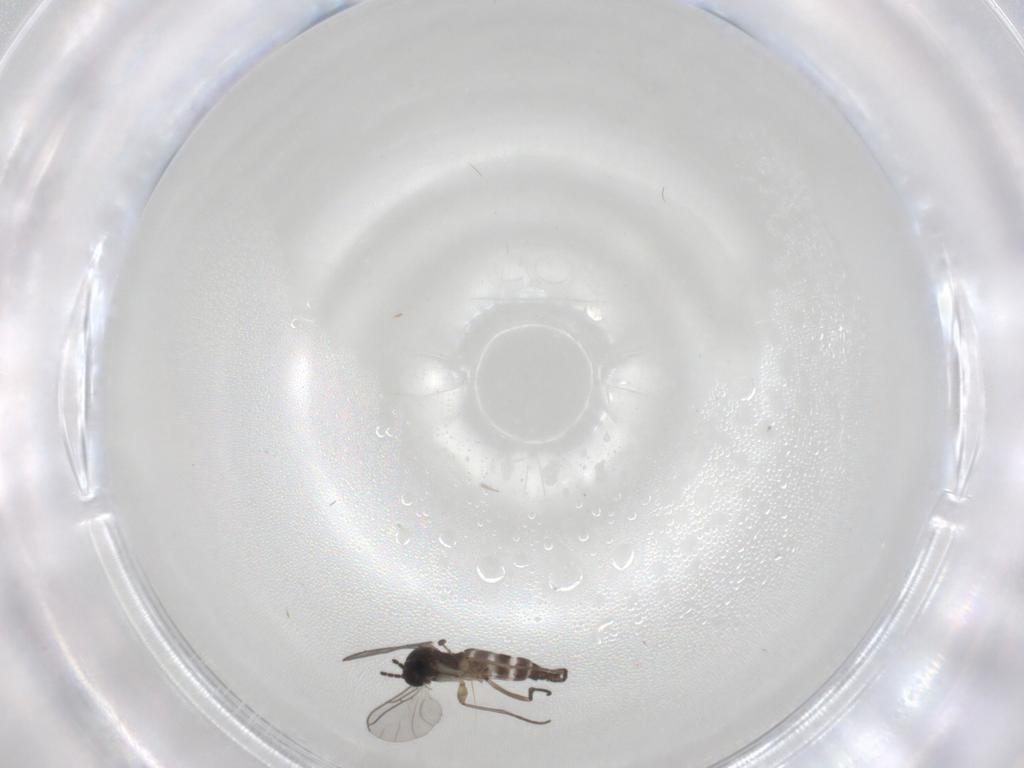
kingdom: Animalia
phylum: Arthropoda
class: Insecta
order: Diptera
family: Sciaridae
